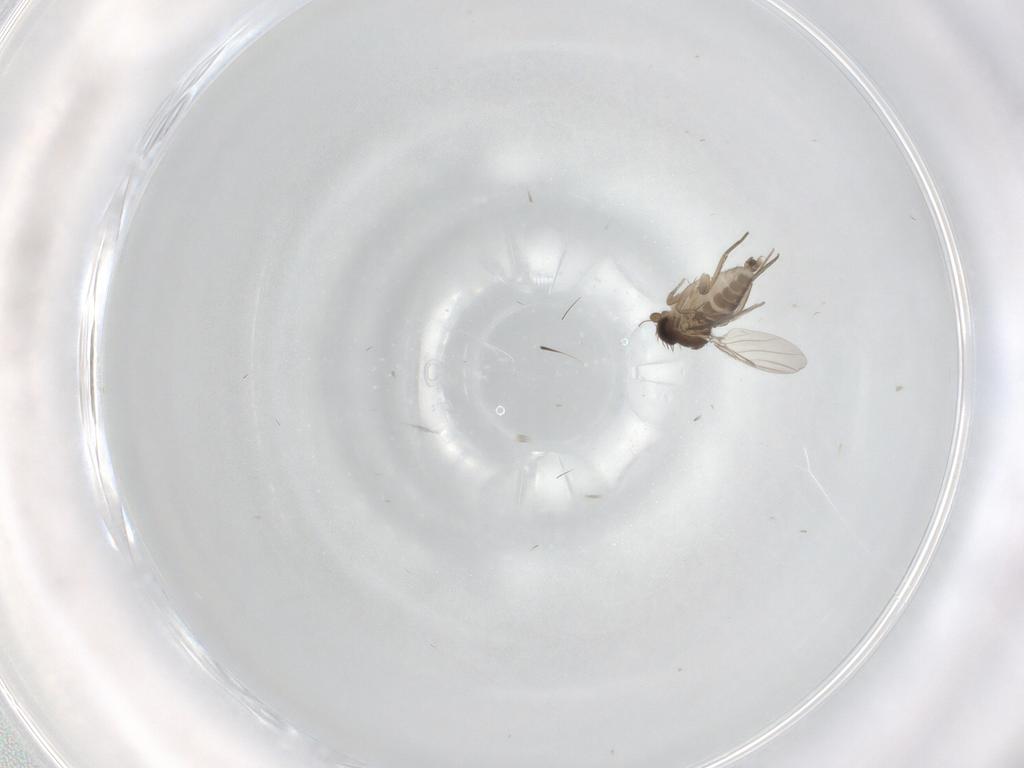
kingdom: Animalia
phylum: Arthropoda
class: Insecta
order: Diptera
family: Phoridae
